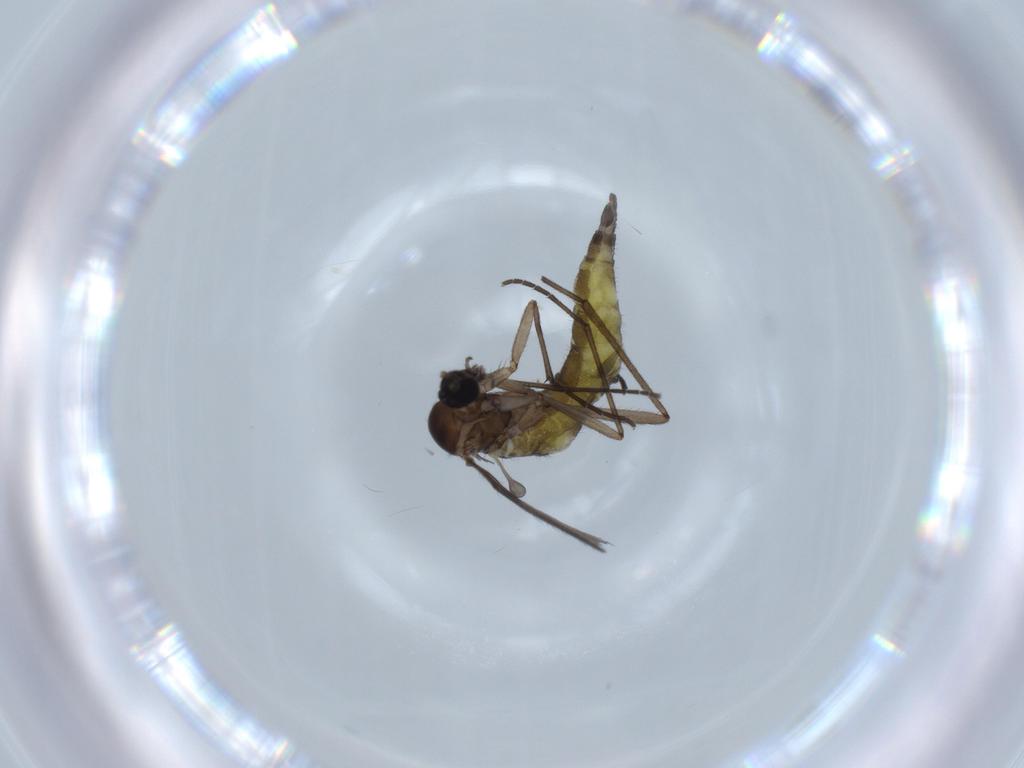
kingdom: Animalia
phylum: Arthropoda
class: Insecta
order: Diptera
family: Sciaridae
